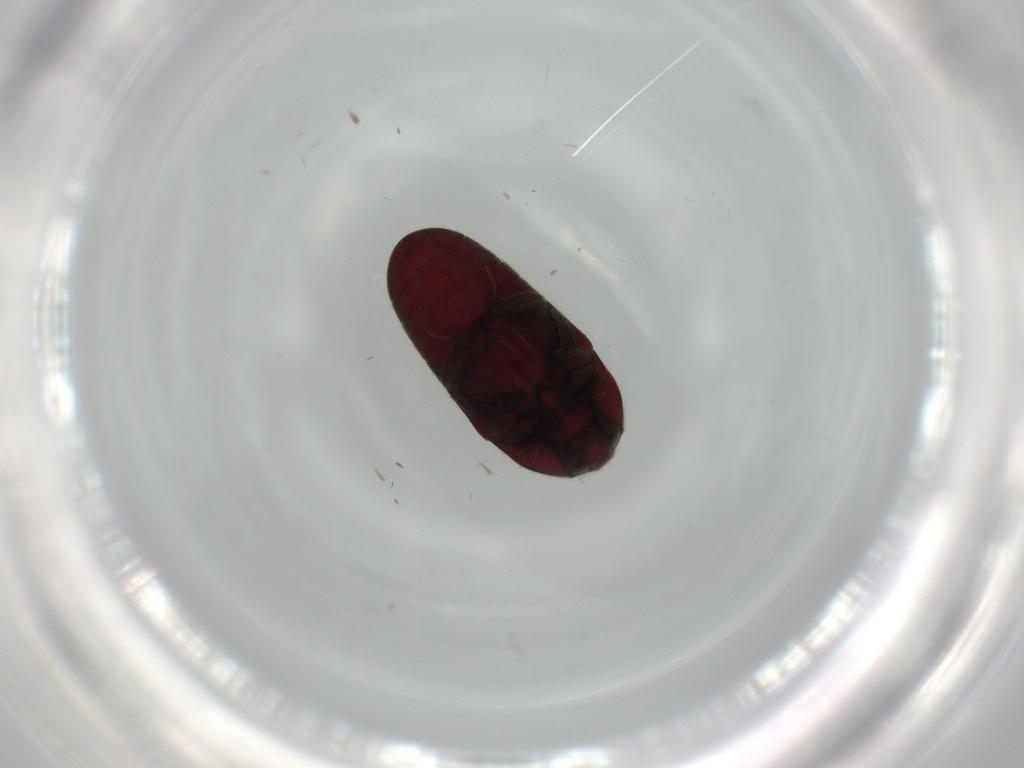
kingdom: Animalia
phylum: Arthropoda
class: Insecta
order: Coleoptera
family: Throscidae
